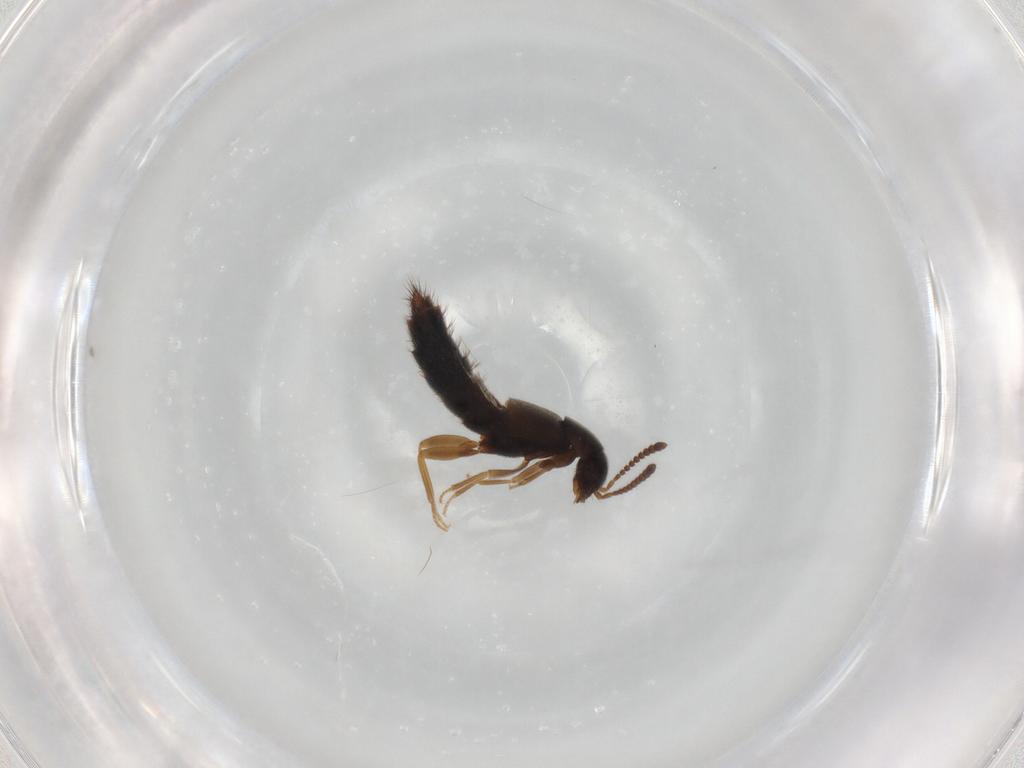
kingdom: Animalia
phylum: Arthropoda
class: Insecta
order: Coleoptera
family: Staphylinidae
